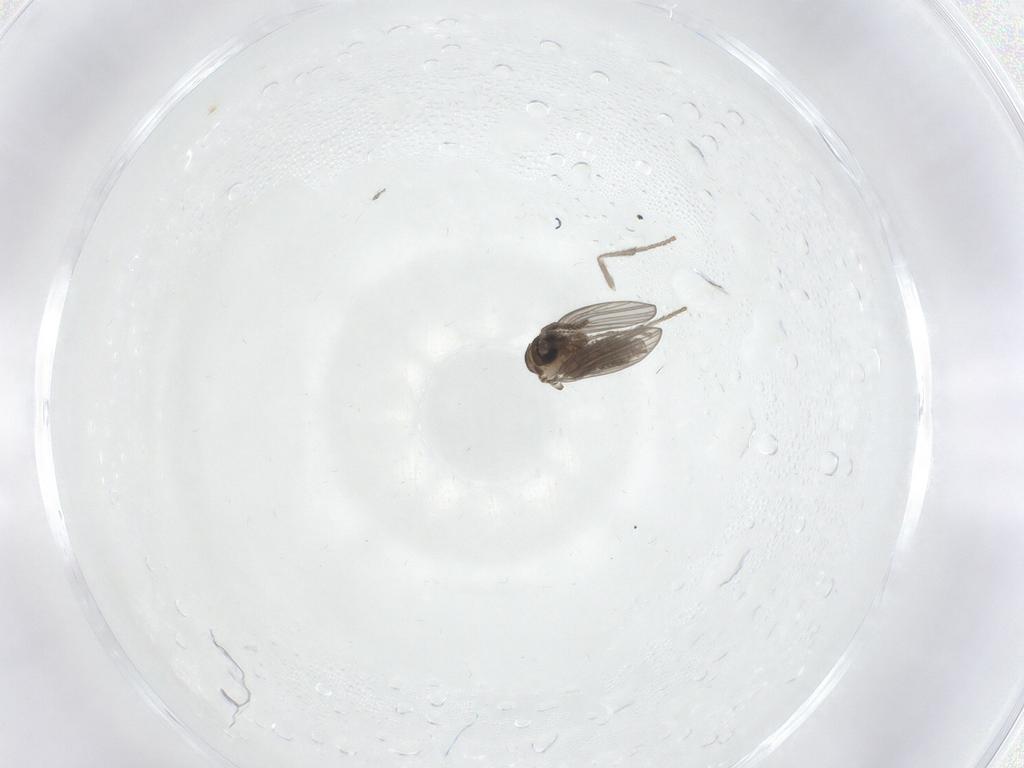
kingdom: Animalia
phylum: Arthropoda
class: Insecta
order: Diptera
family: Psychodidae
